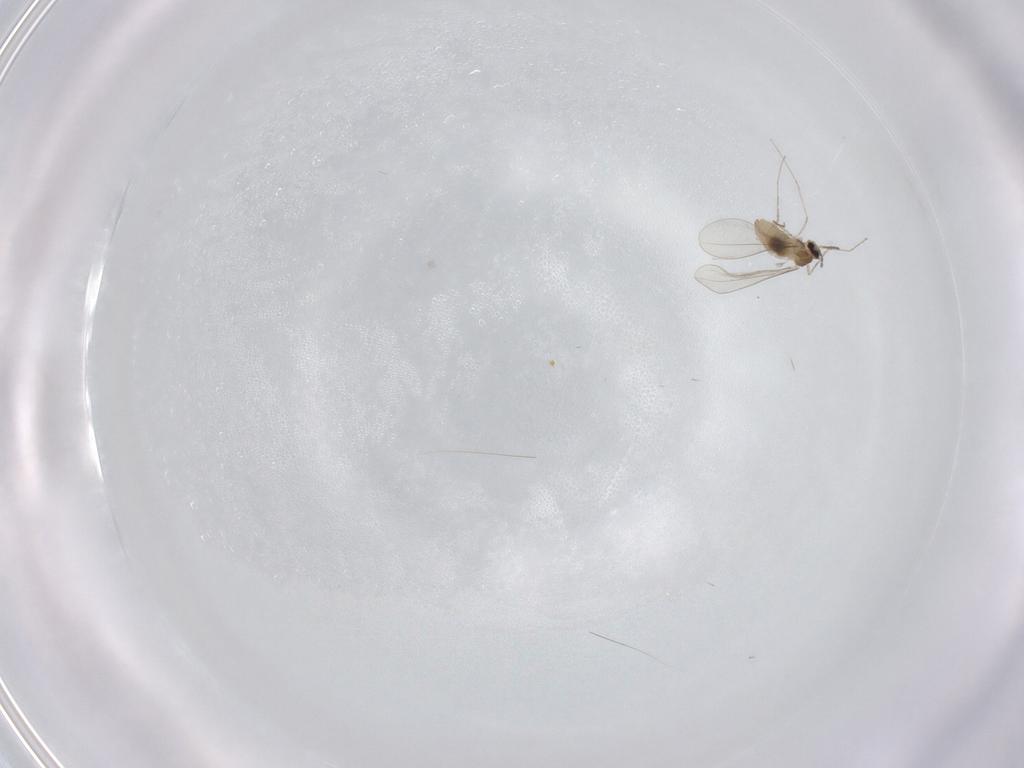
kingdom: Animalia
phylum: Arthropoda
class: Insecta
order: Diptera
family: Cecidomyiidae
